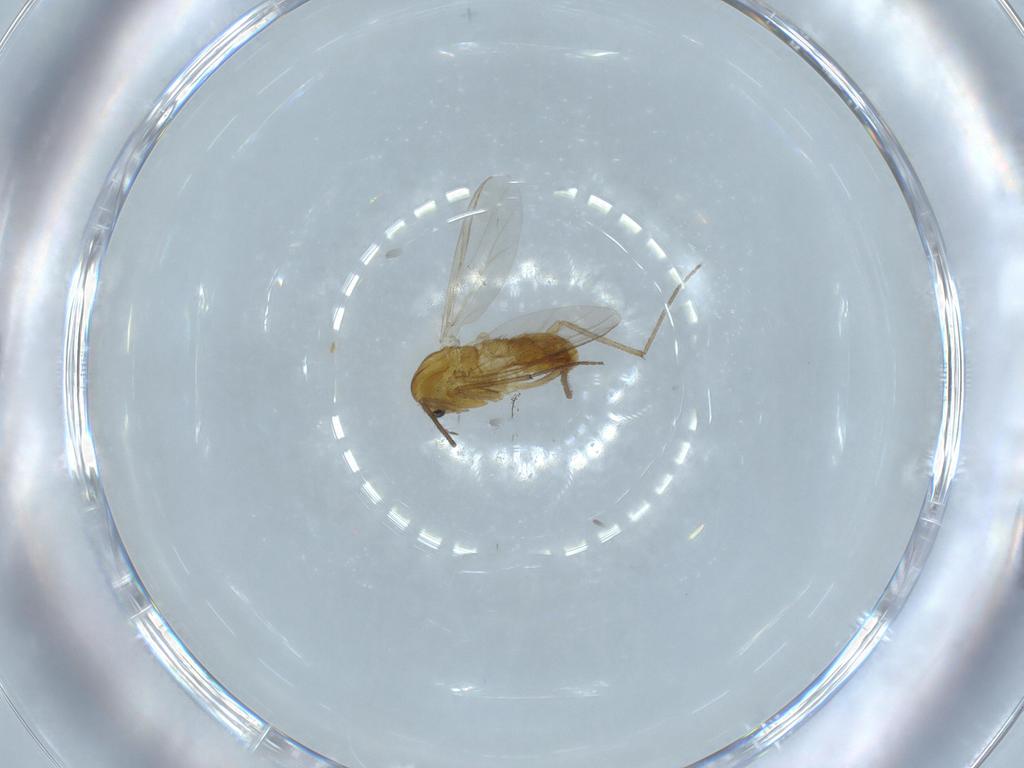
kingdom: Animalia
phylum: Arthropoda
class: Insecta
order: Diptera
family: Chironomidae
